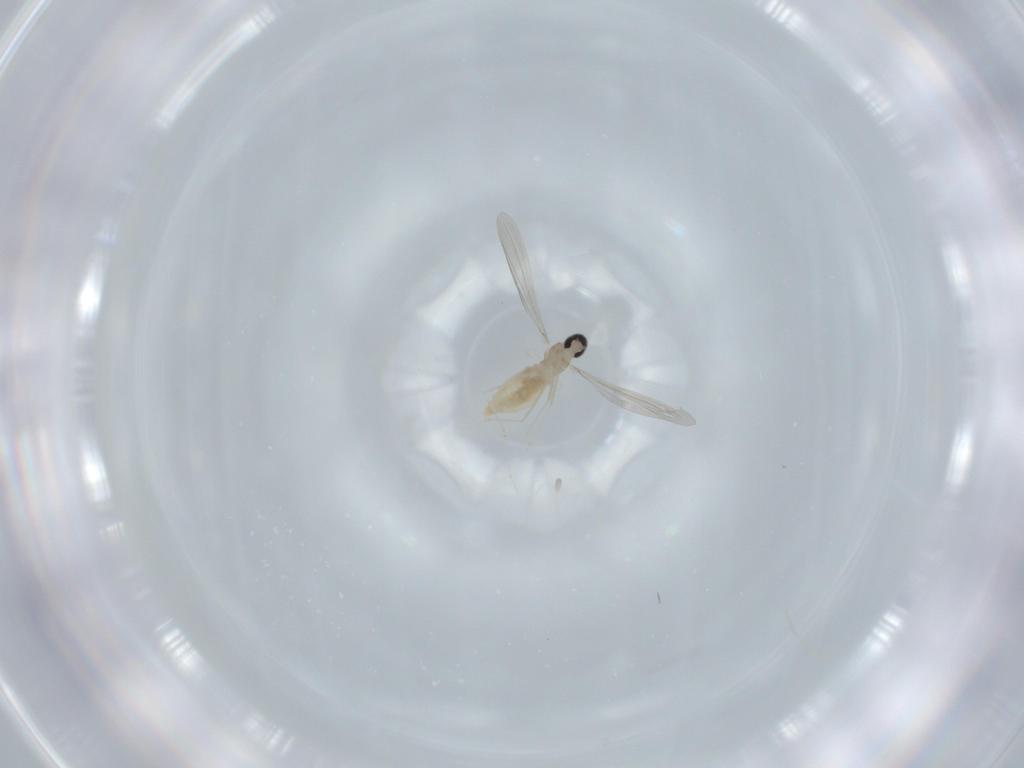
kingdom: Animalia
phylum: Arthropoda
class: Insecta
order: Diptera
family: Cecidomyiidae
